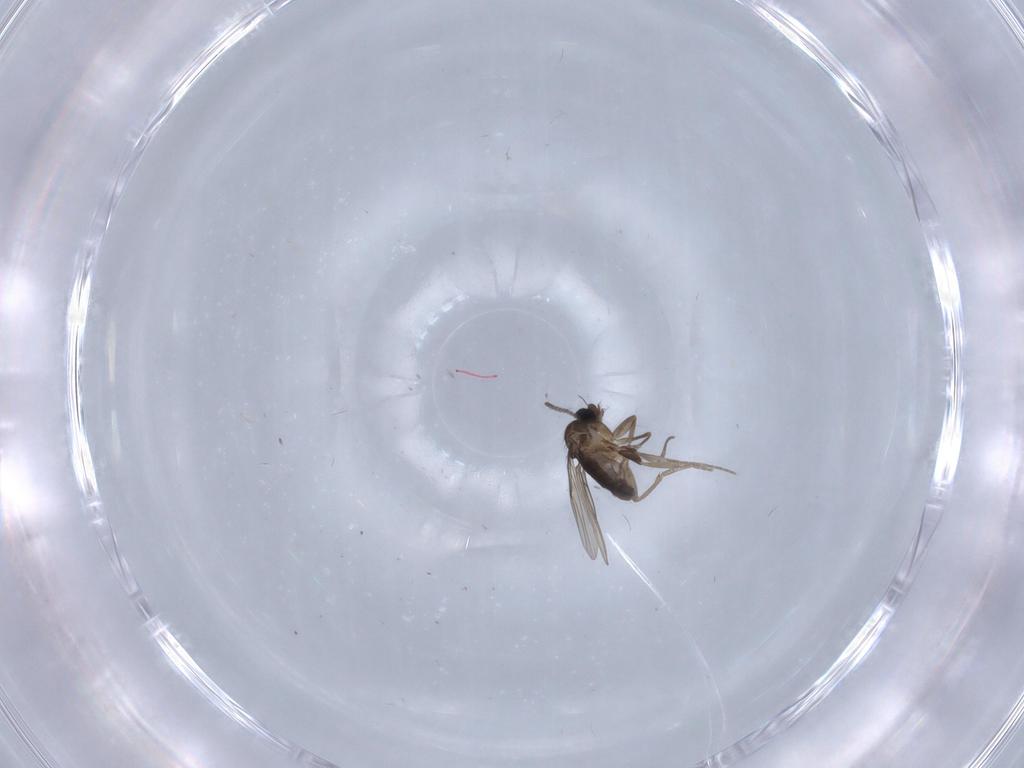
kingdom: Animalia
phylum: Arthropoda
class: Insecta
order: Diptera
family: Phoridae
